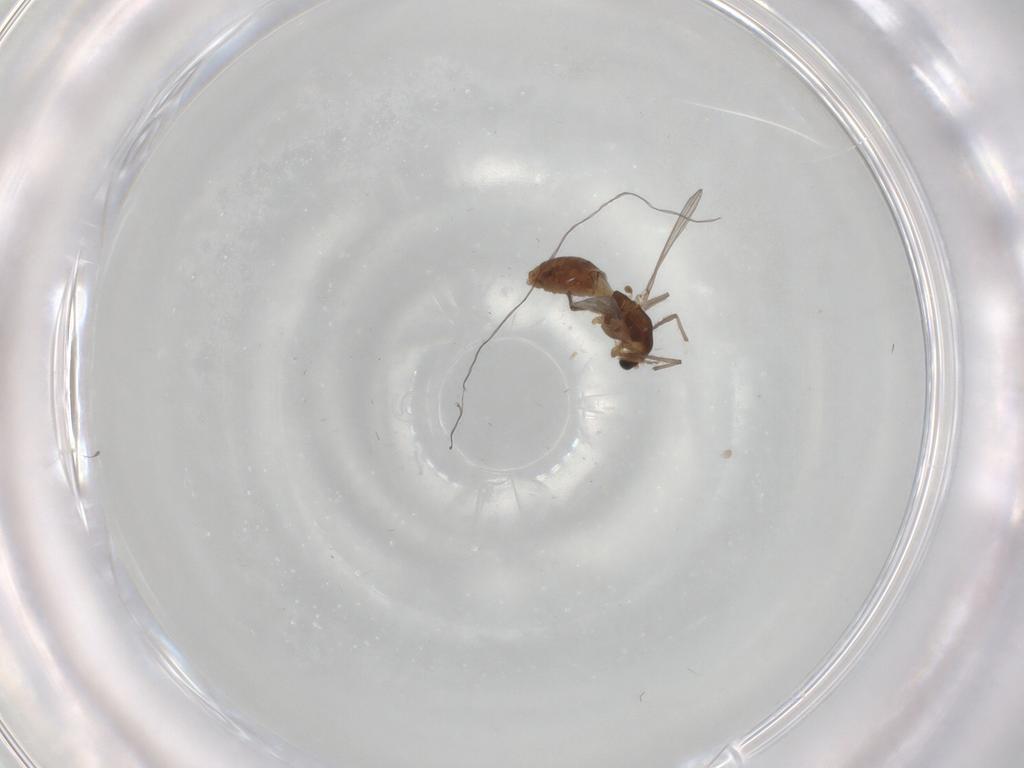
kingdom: Animalia
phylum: Arthropoda
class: Insecta
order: Diptera
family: Chironomidae
